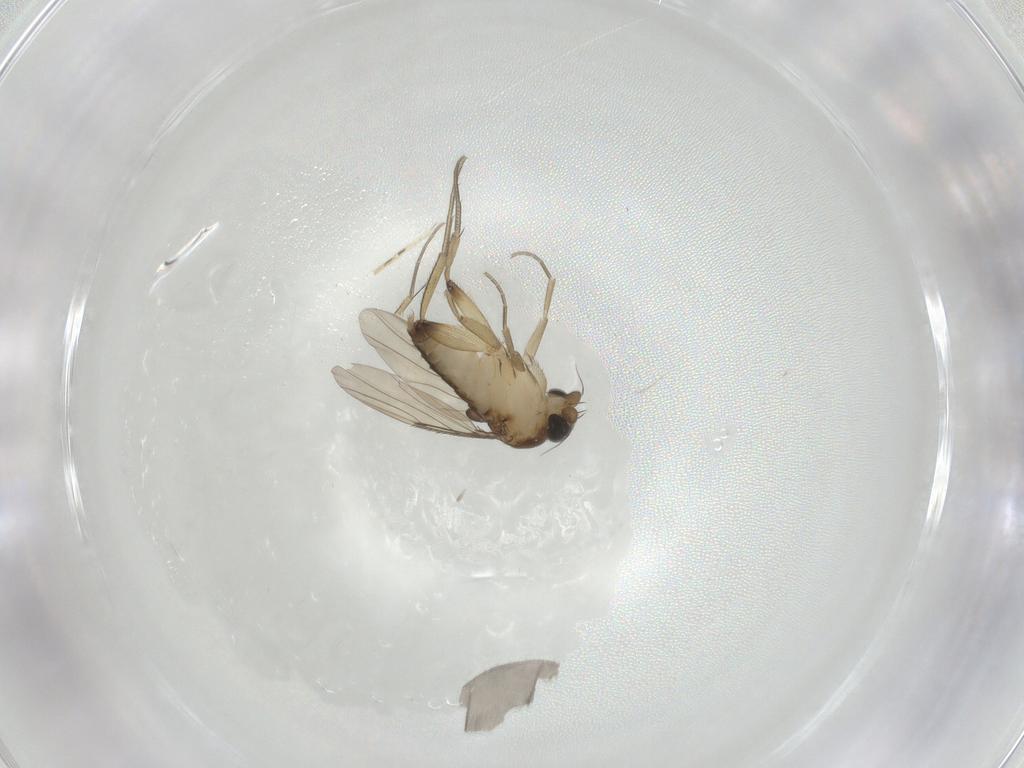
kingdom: Animalia
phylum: Arthropoda
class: Insecta
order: Diptera
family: Phoridae
